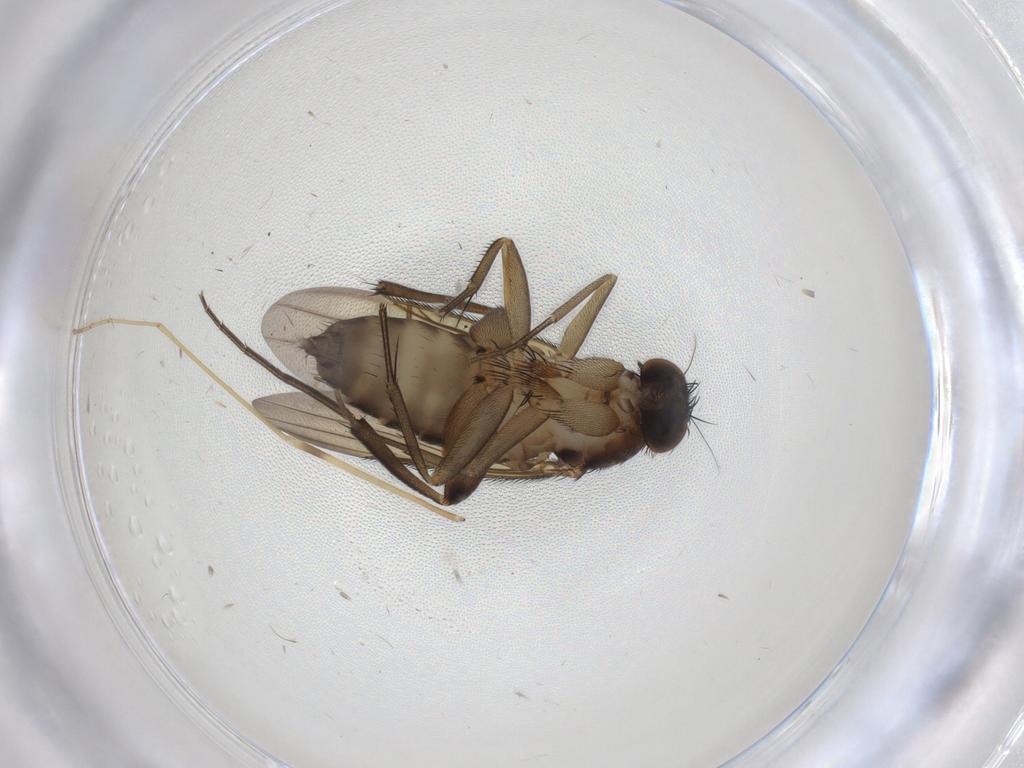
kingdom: Animalia
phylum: Arthropoda
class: Insecta
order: Diptera
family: Phoridae
